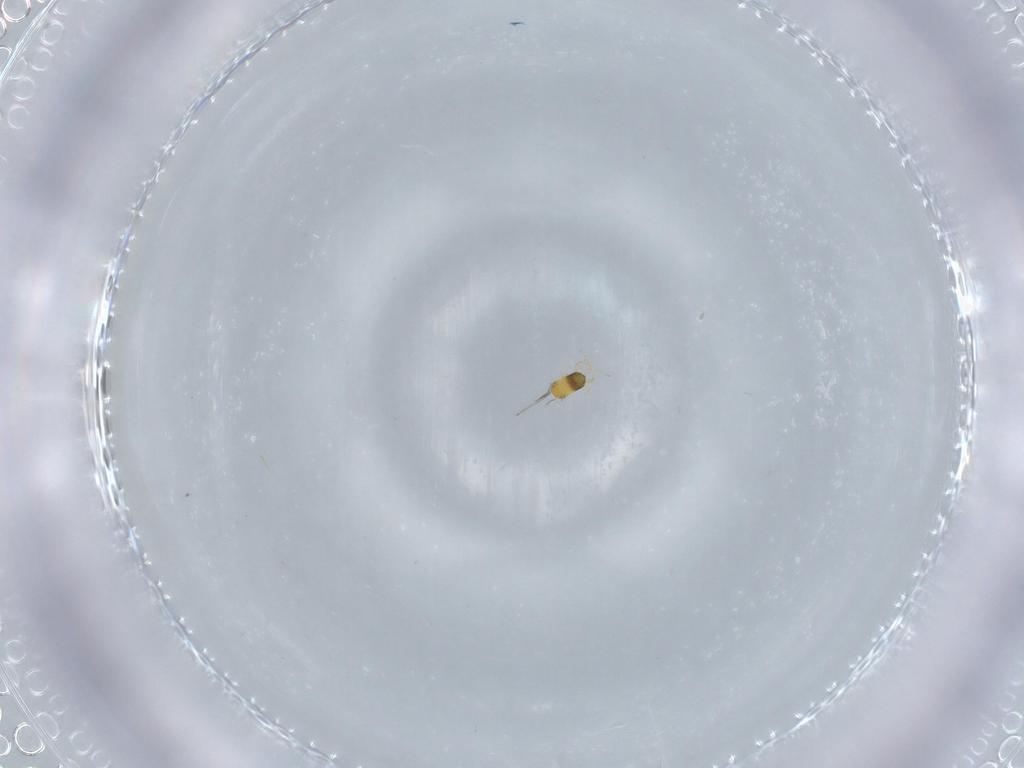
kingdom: Animalia
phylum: Arthropoda
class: Insecta
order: Hymenoptera
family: Trichogrammatidae
